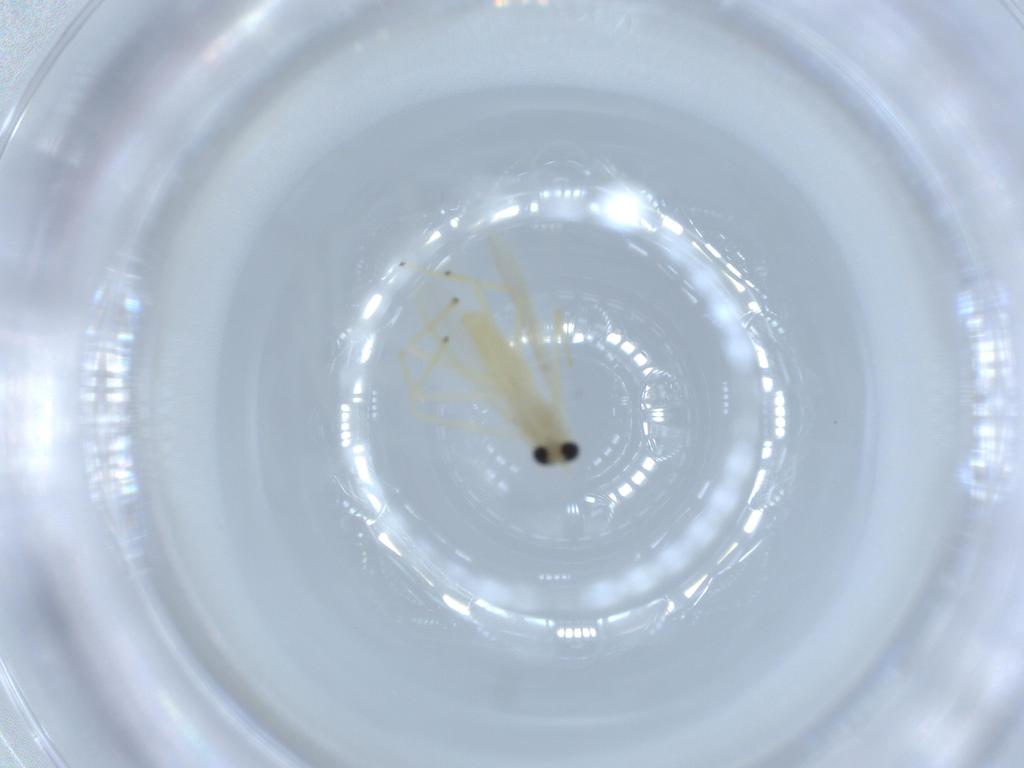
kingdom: Animalia
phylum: Arthropoda
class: Insecta
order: Diptera
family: Chironomidae
